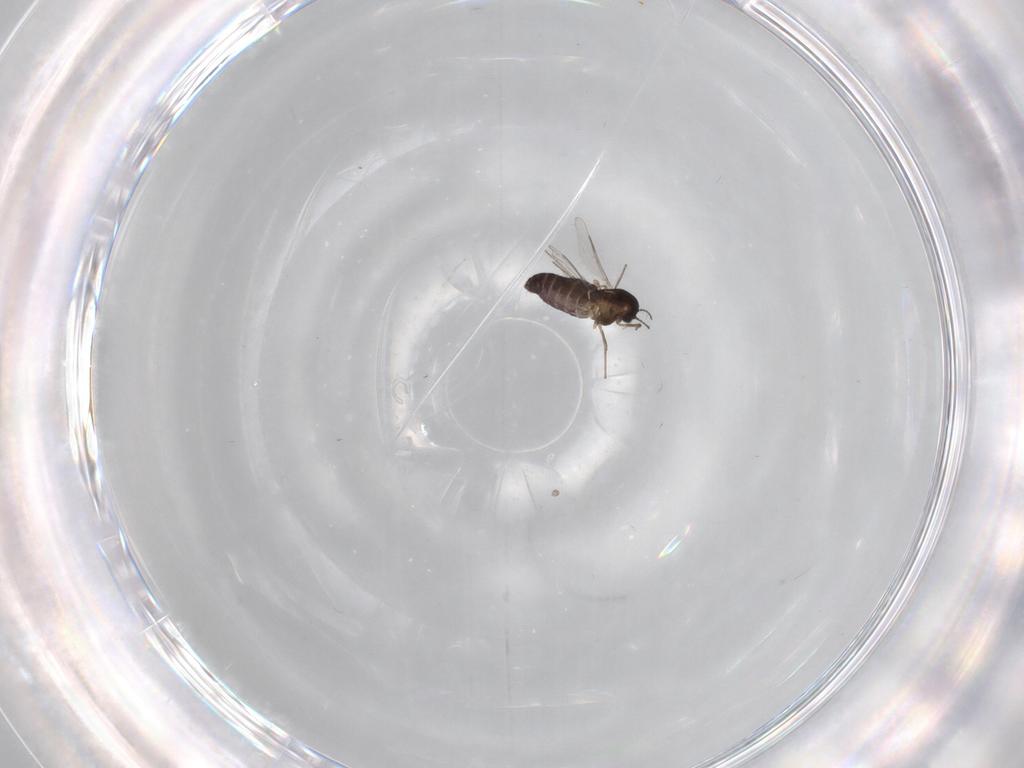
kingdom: Animalia
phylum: Arthropoda
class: Insecta
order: Diptera
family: Chironomidae
